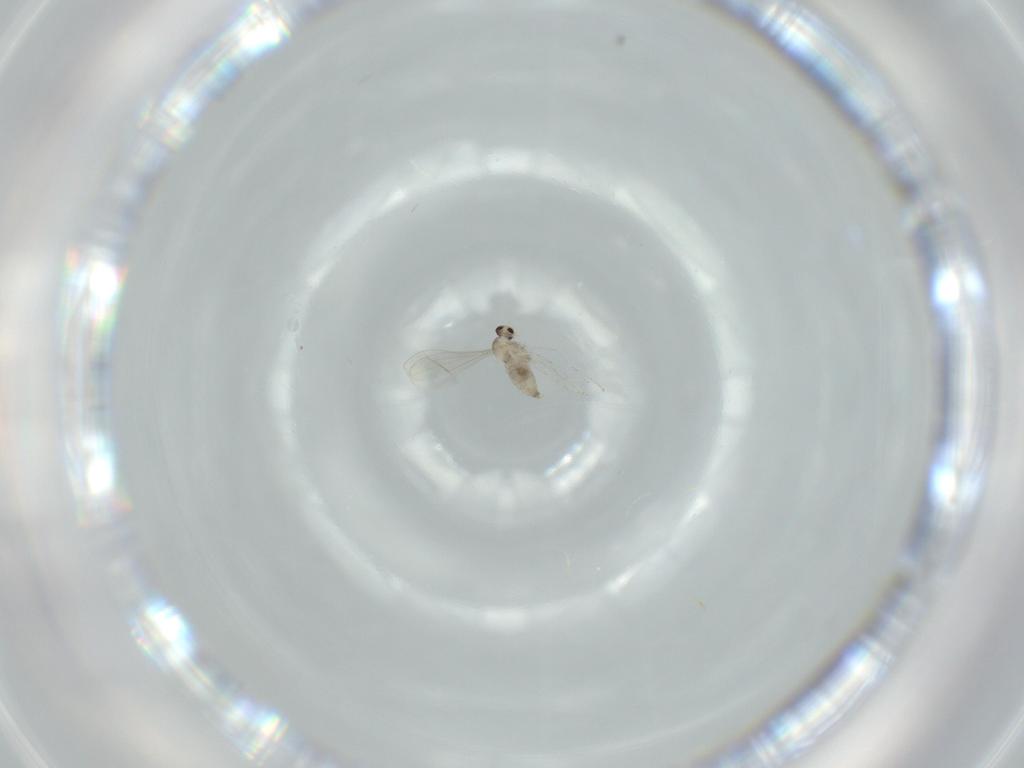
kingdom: Animalia
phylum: Arthropoda
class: Insecta
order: Diptera
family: Cecidomyiidae
